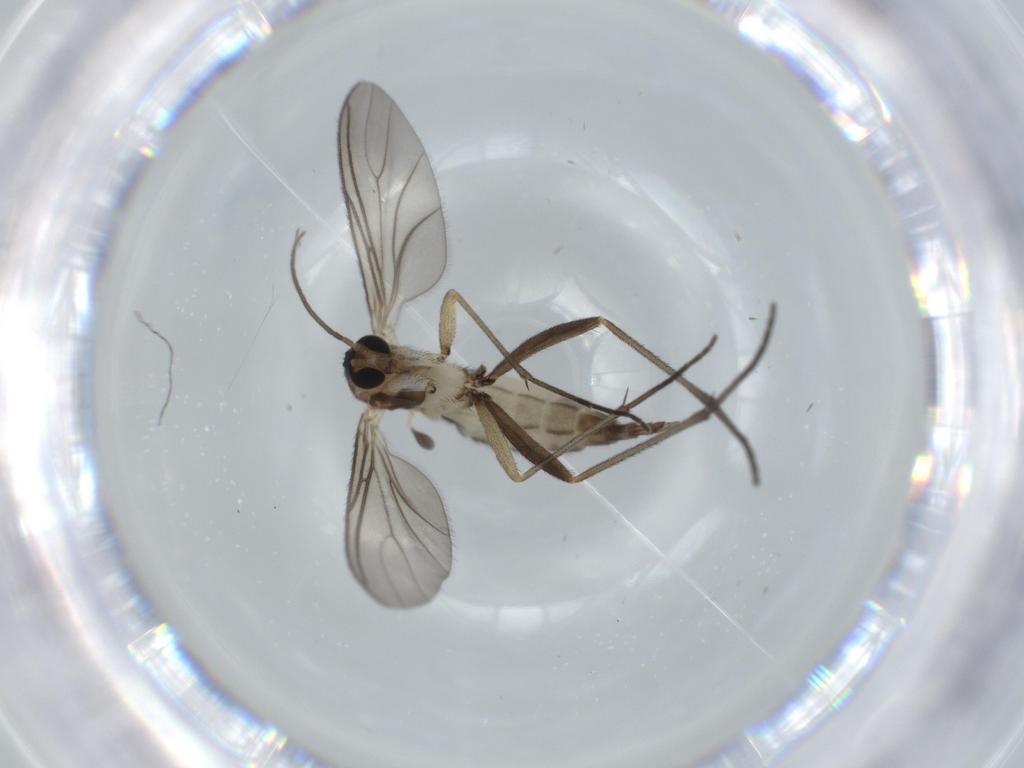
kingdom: Animalia
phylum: Arthropoda
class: Insecta
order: Diptera
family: Sciaridae
